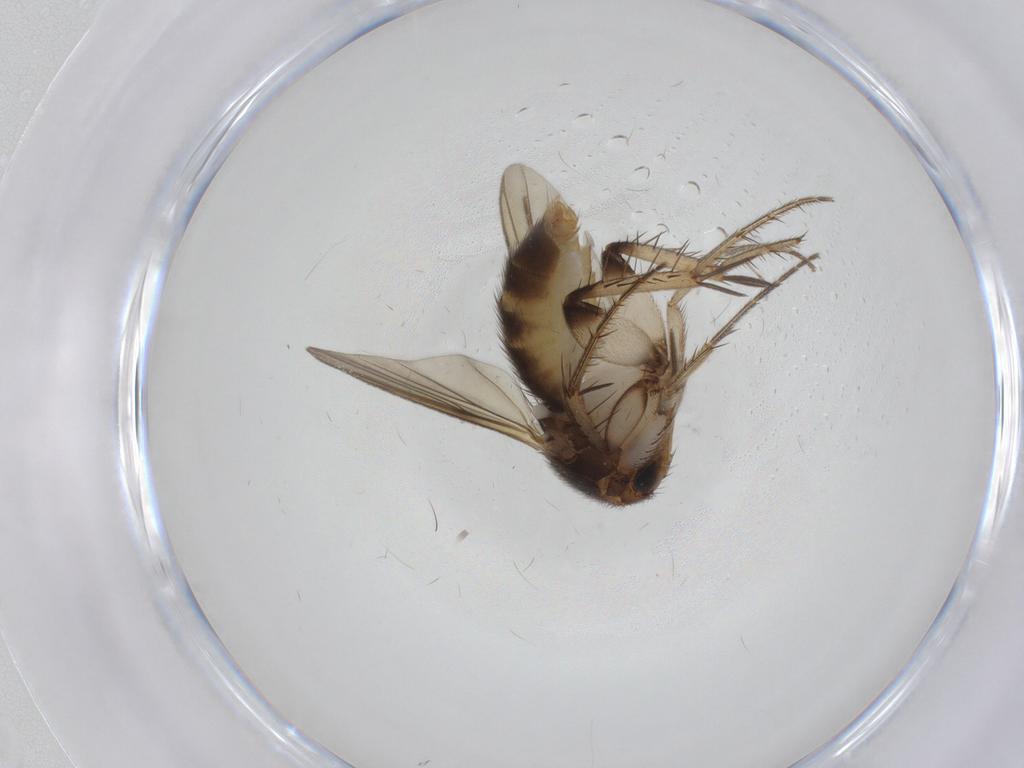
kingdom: Animalia
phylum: Arthropoda
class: Insecta
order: Diptera
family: Mycetophilidae
